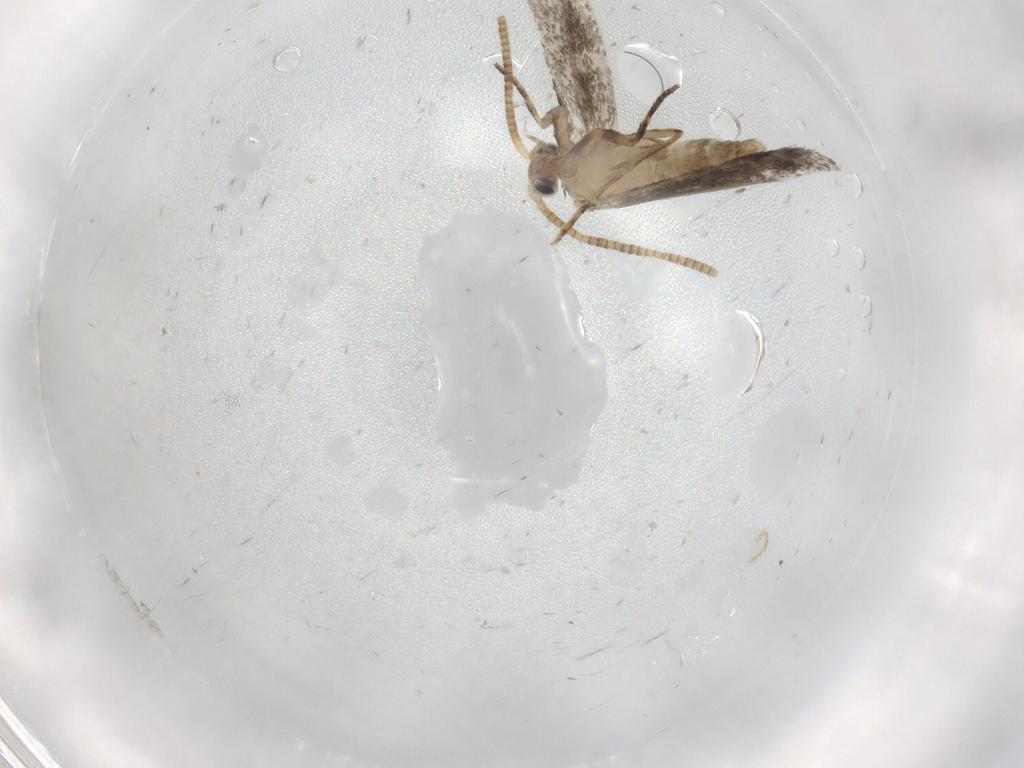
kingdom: Animalia
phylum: Arthropoda
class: Insecta
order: Lepidoptera
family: Tineidae
